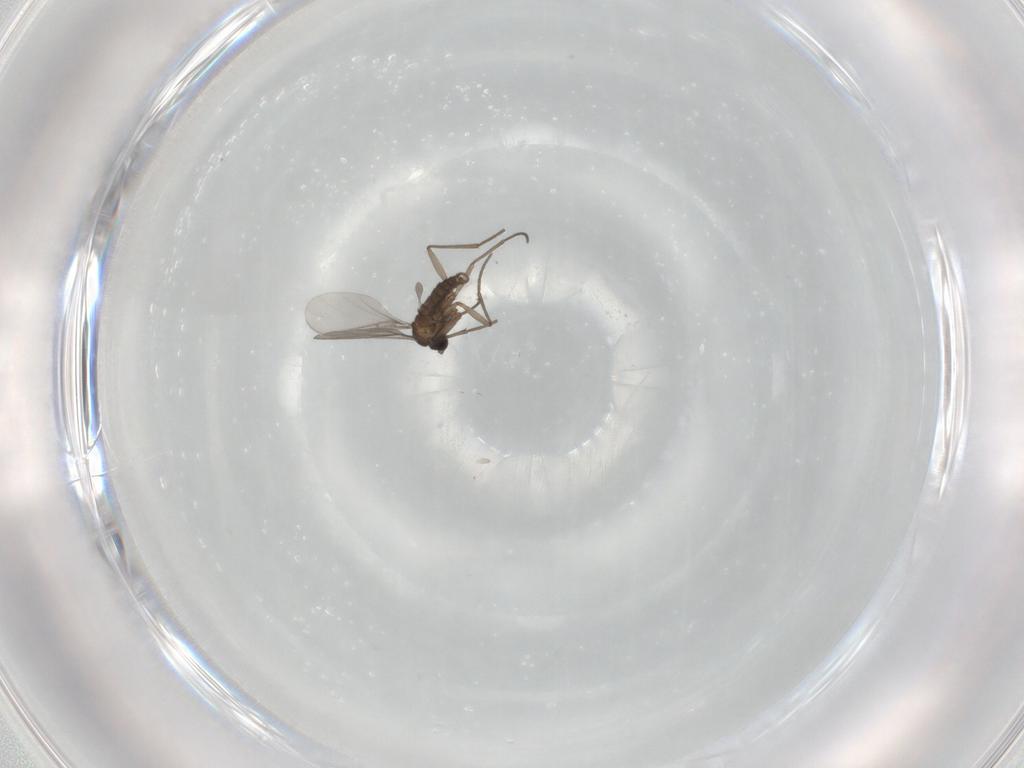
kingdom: Animalia
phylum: Arthropoda
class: Insecta
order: Diptera
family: Sciaridae
